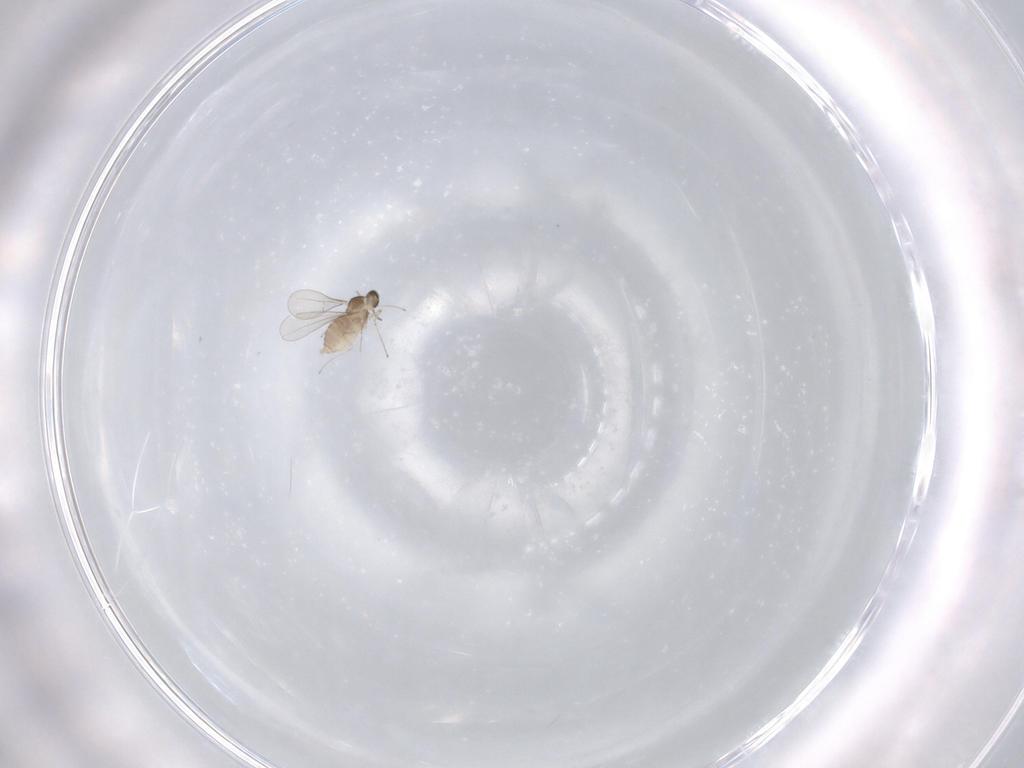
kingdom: Animalia
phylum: Arthropoda
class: Insecta
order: Diptera
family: Cecidomyiidae
